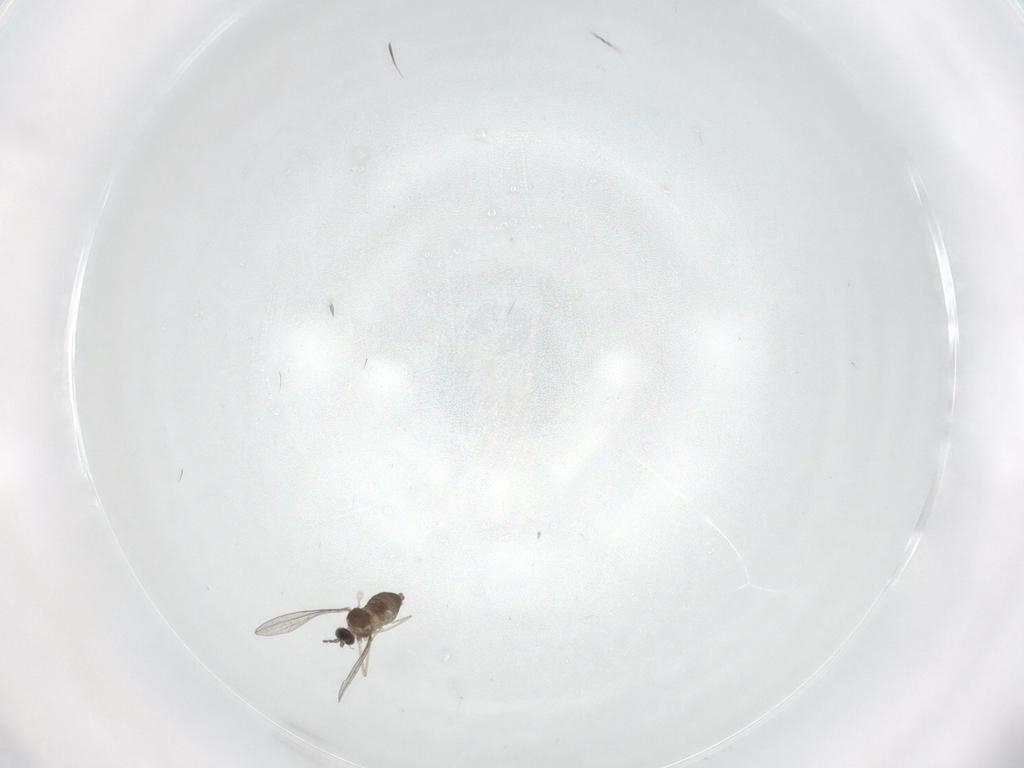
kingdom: Animalia
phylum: Arthropoda
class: Insecta
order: Diptera
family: Cecidomyiidae
